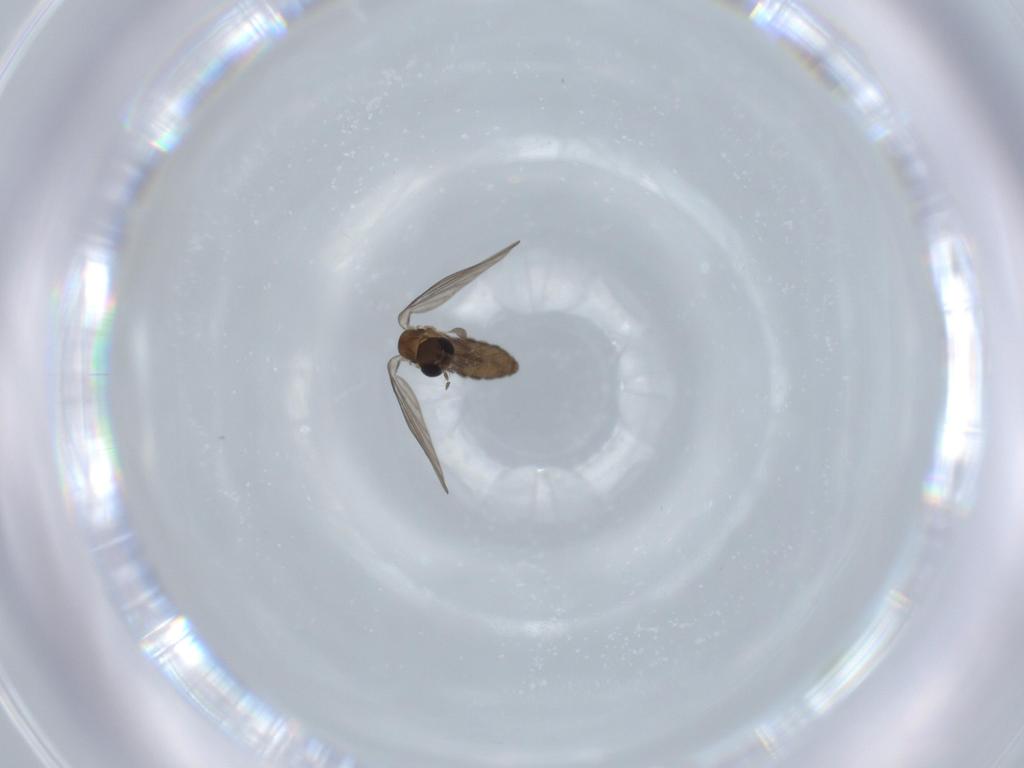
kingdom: Animalia
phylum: Arthropoda
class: Insecta
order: Diptera
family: Psychodidae
